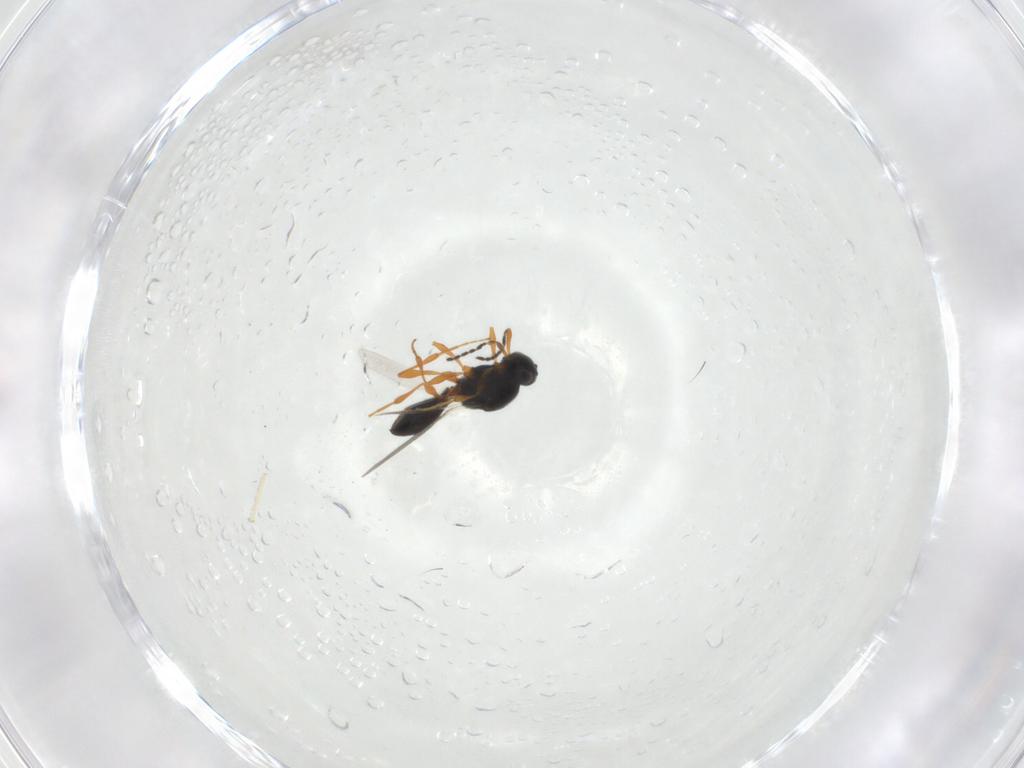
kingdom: Animalia
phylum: Arthropoda
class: Insecta
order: Hymenoptera
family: Platygastridae
